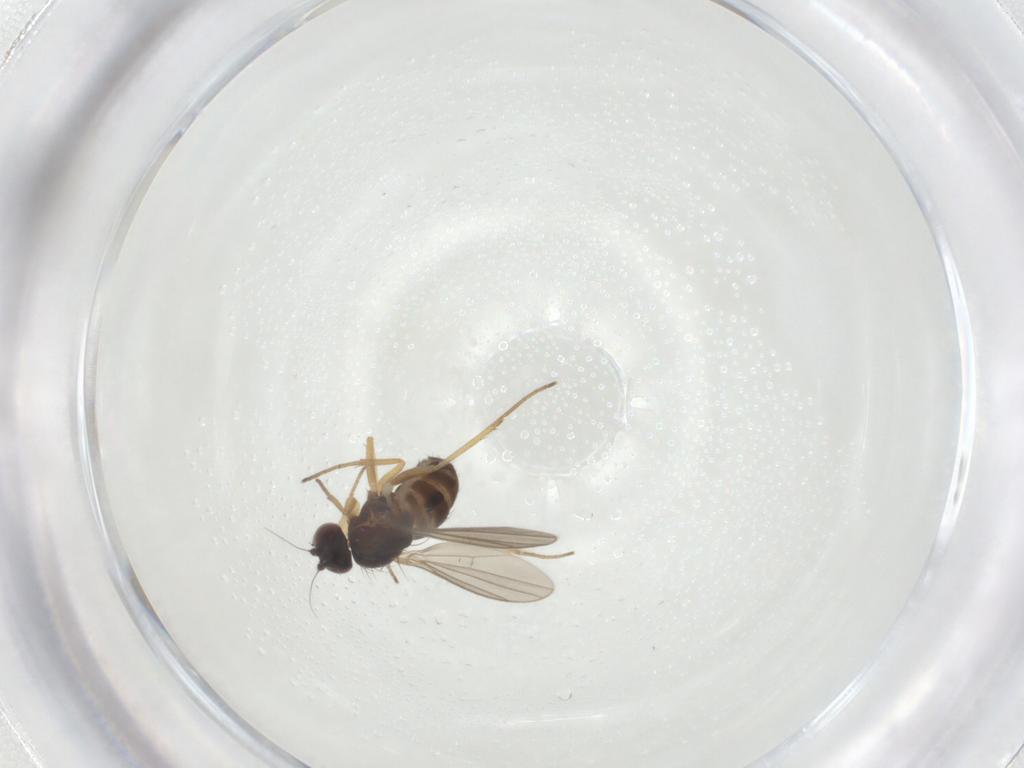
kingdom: Animalia
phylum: Arthropoda
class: Insecta
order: Diptera
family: Dolichopodidae
